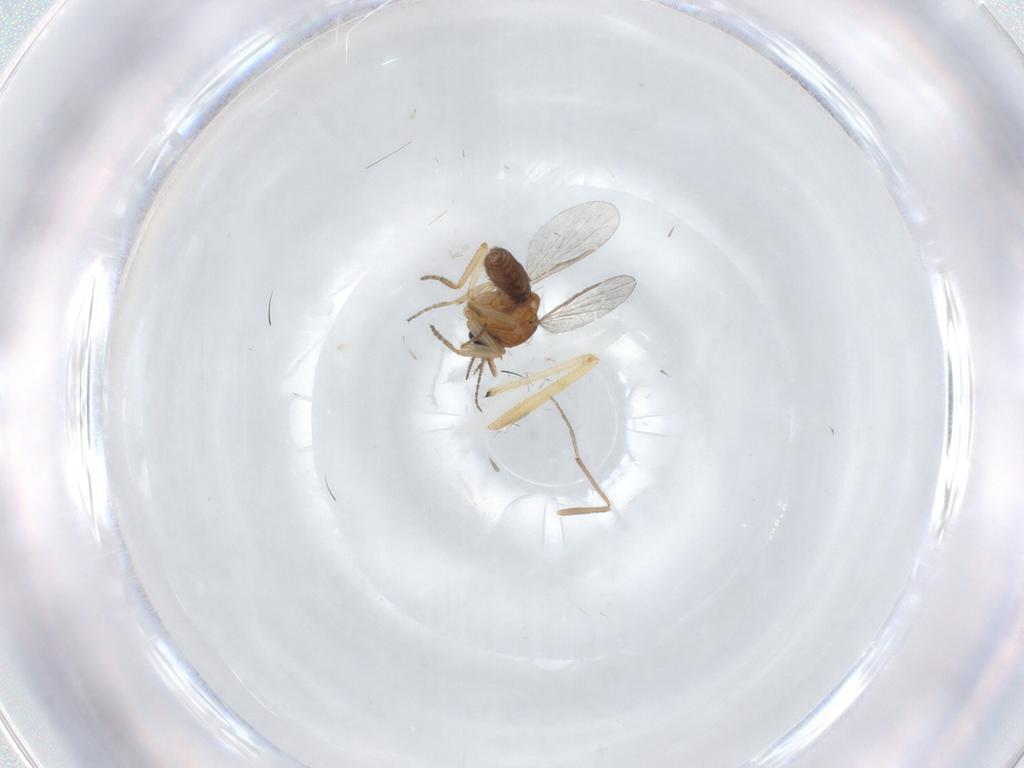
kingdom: Animalia
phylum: Arthropoda
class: Insecta
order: Diptera
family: Ceratopogonidae
